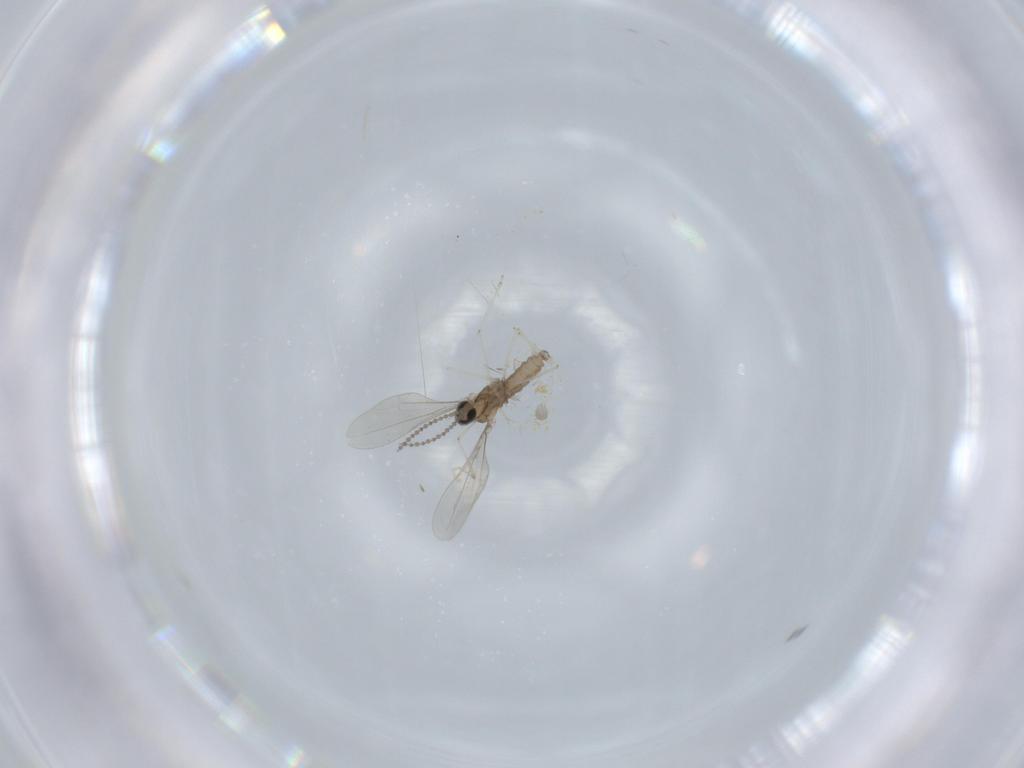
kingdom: Animalia
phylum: Arthropoda
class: Insecta
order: Diptera
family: Cecidomyiidae
